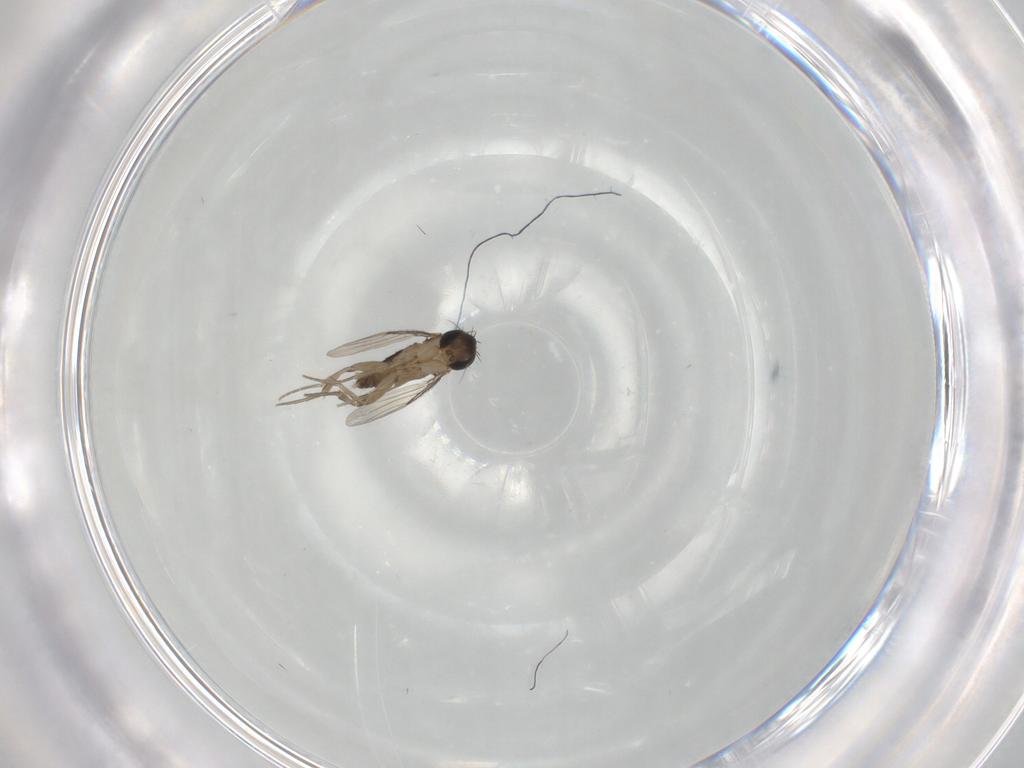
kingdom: Animalia
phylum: Arthropoda
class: Insecta
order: Diptera
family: Phoridae
